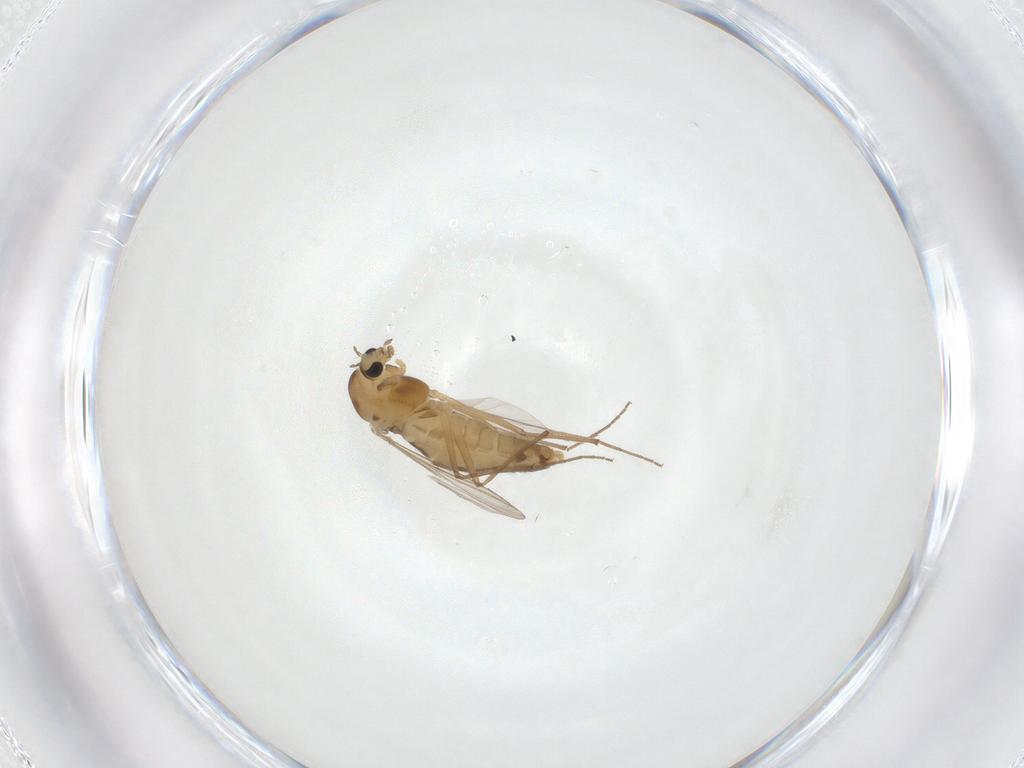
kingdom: Animalia
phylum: Arthropoda
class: Insecta
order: Diptera
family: Chironomidae
